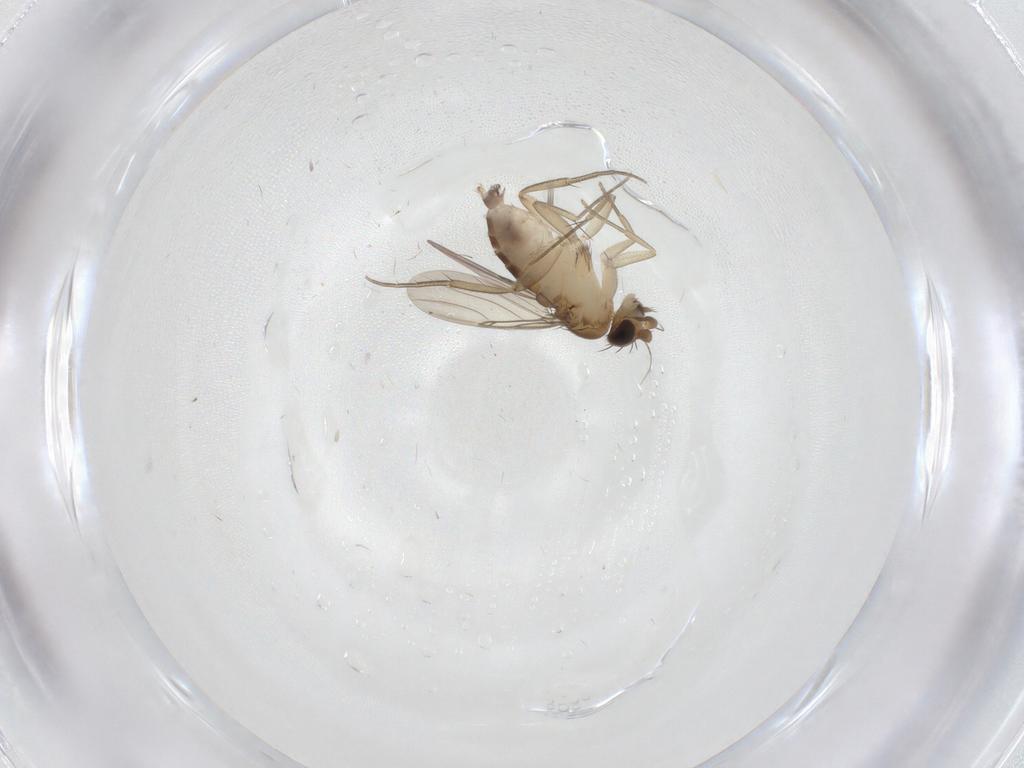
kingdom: Animalia
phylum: Arthropoda
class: Insecta
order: Diptera
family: Phoridae
